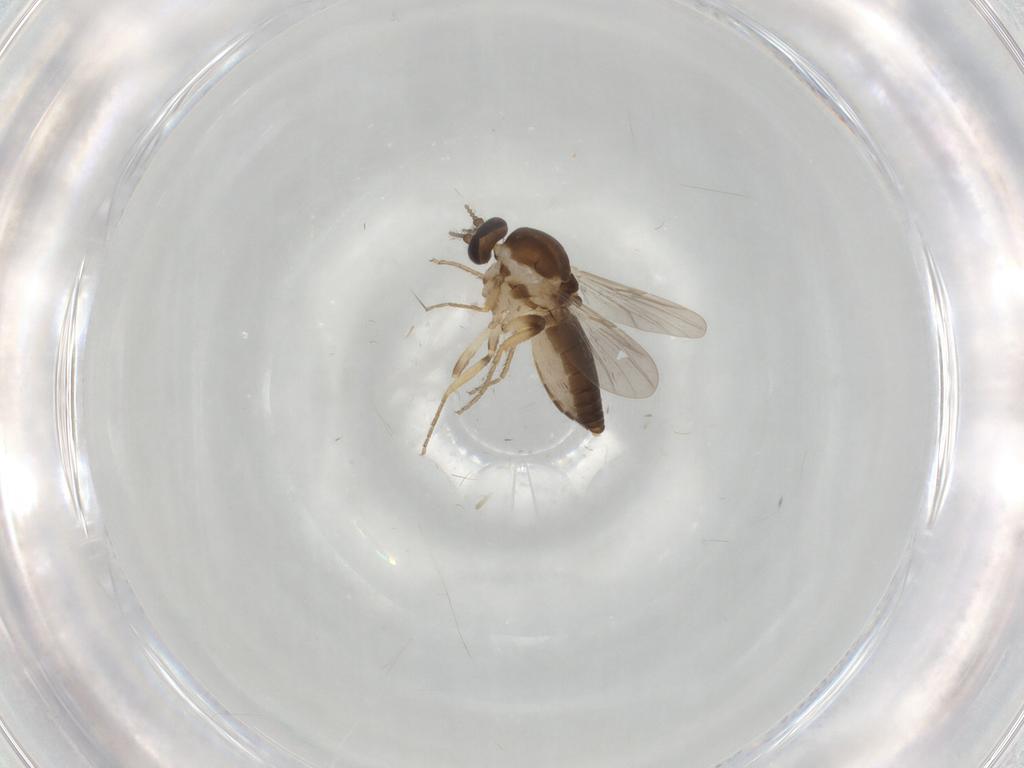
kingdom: Animalia
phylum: Arthropoda
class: Insecta
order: Diptera
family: Ceratopogonidae
